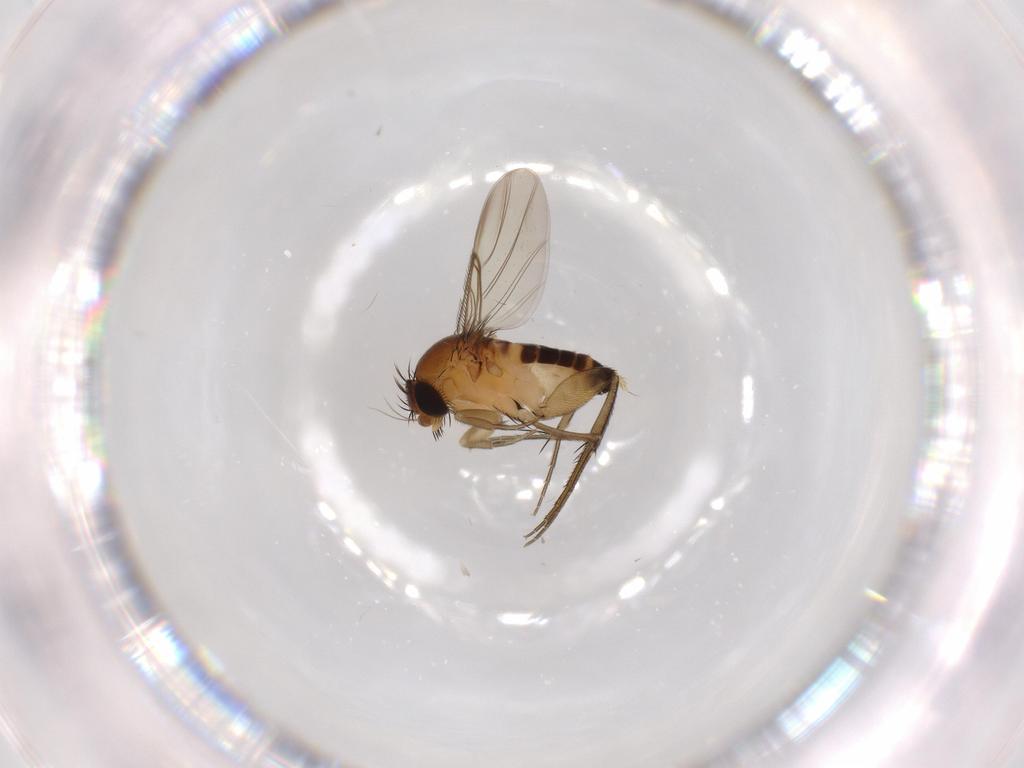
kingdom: Animalia
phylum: Arthropoda
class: Insecta
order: Diptera
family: Phoridae
